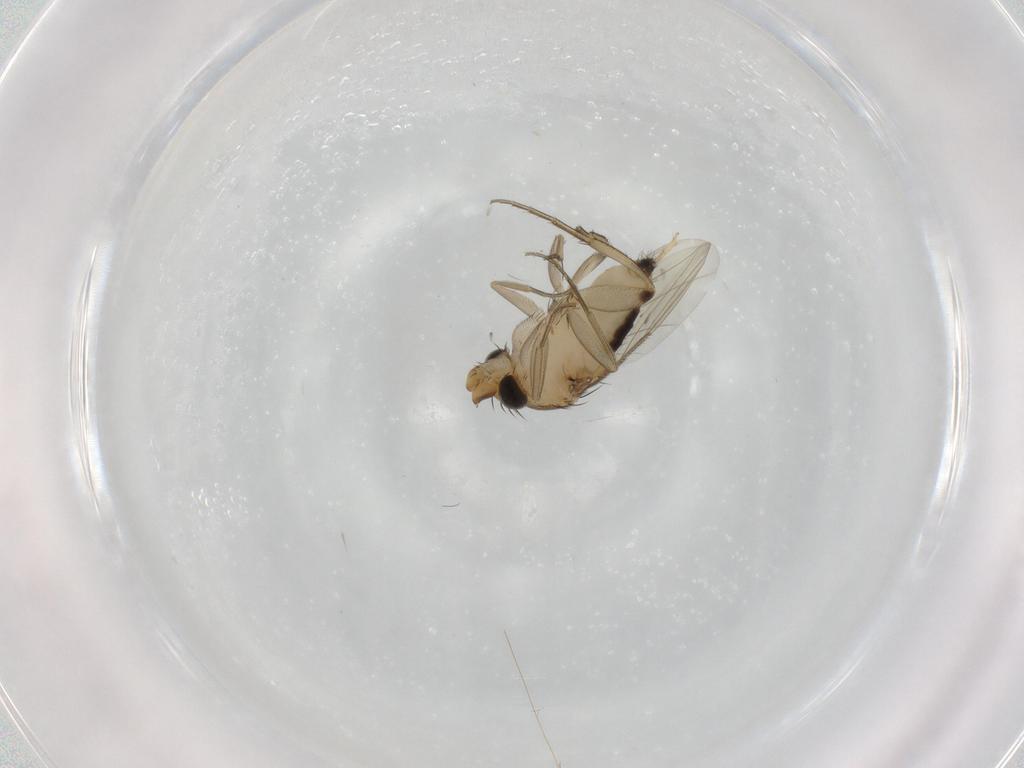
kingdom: Animalia
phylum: Arthropoda
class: Insecta
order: Diptera
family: Phoridae
